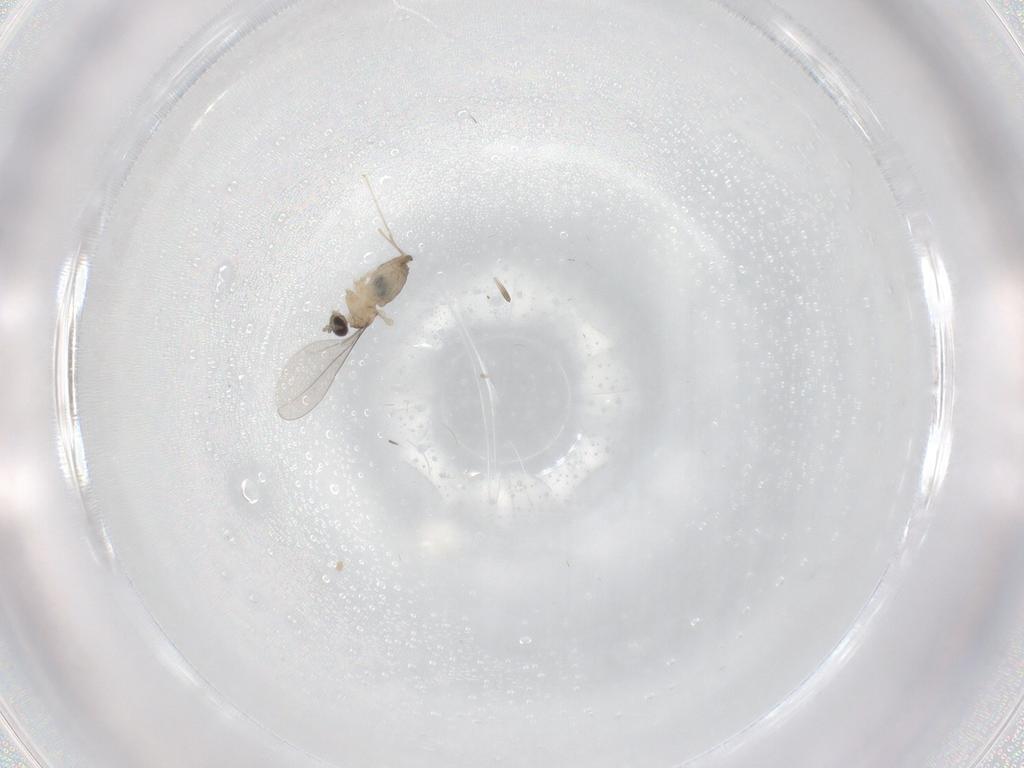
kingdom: Animalia
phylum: Arthropoda
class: Insecta
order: Diptera
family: Cecidomyiidae
